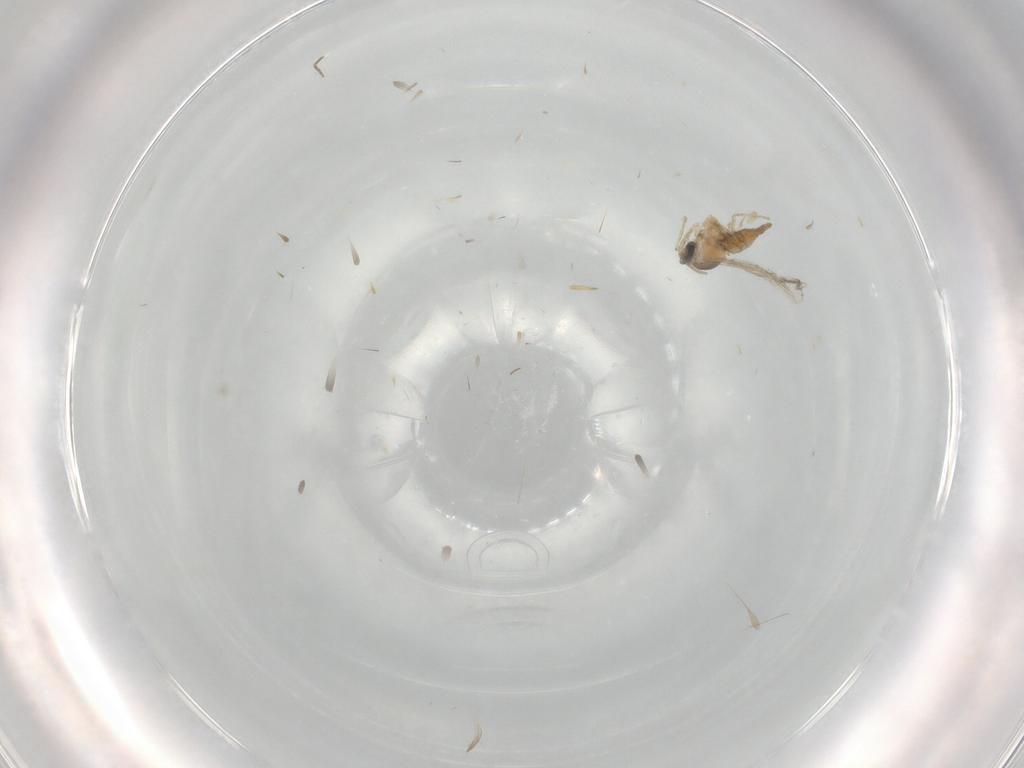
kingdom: Animalia
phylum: Arthropoda
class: Insecta
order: Diptera
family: Cecidomyiidae
